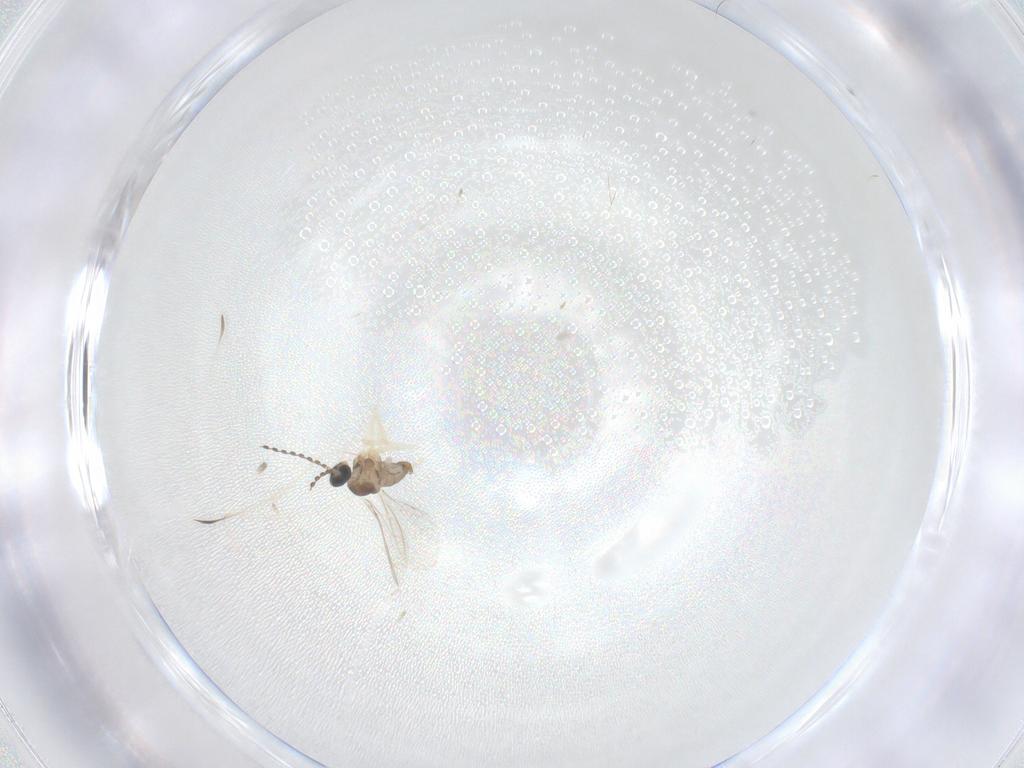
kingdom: Animalia
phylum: Arthropoda
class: Insecta
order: Diptera
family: Cecidomyiidae
